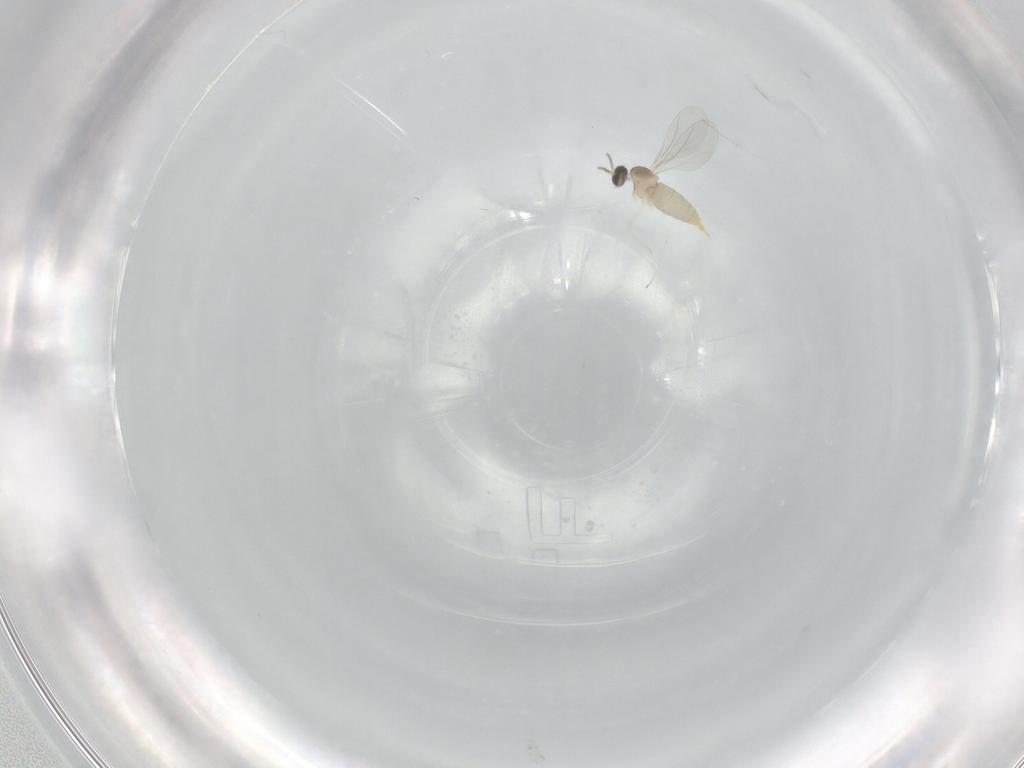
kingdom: Animalia
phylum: Arthropoda
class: Insecta
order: Diptera
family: Cecidomyiidae
